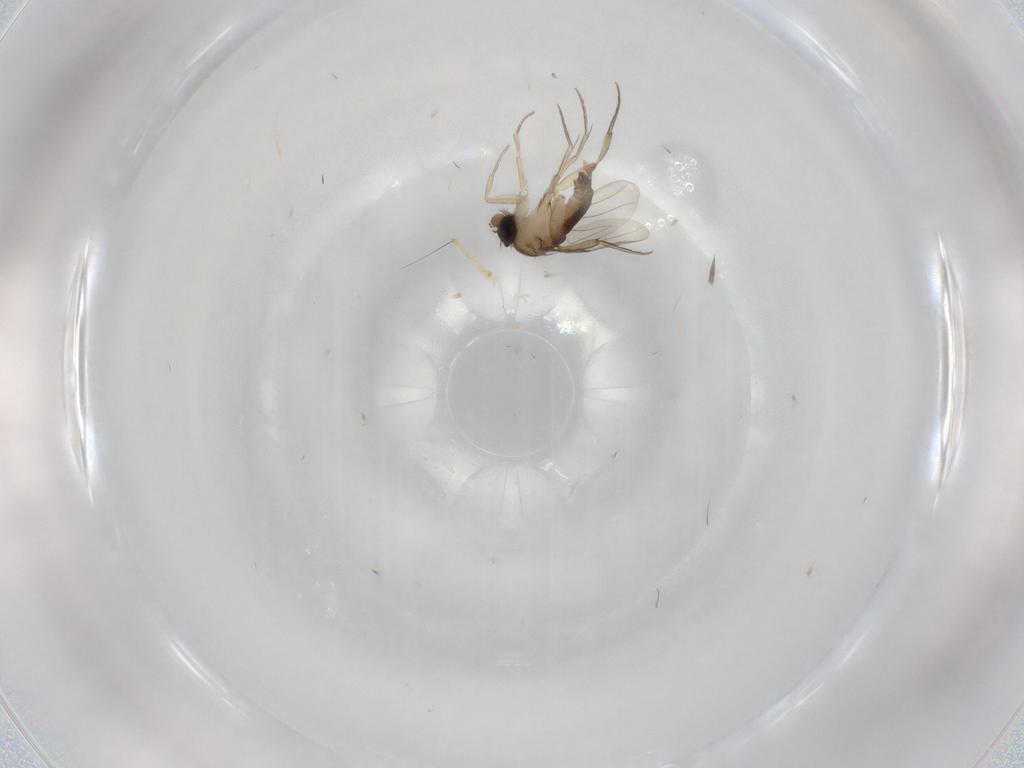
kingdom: Animalia
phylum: Arthropoda
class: Insecta
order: Diptera
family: Phoridae
